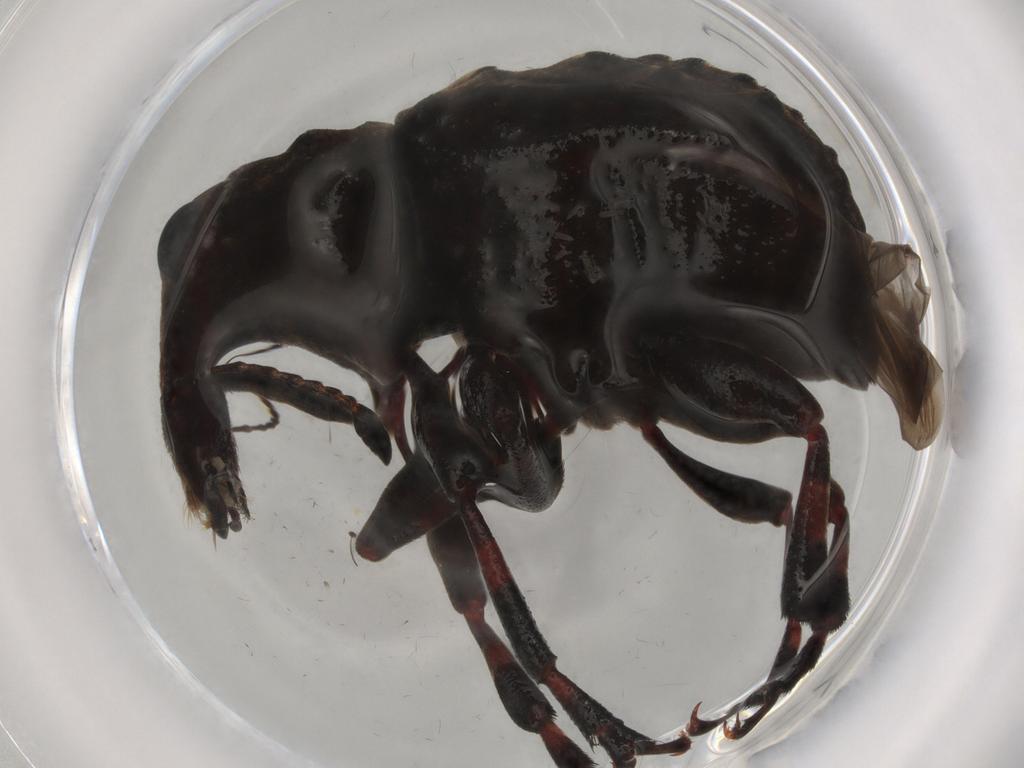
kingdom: Animalia
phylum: Arthropoda
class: Insecta
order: Coleoptera
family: Anthribidae
